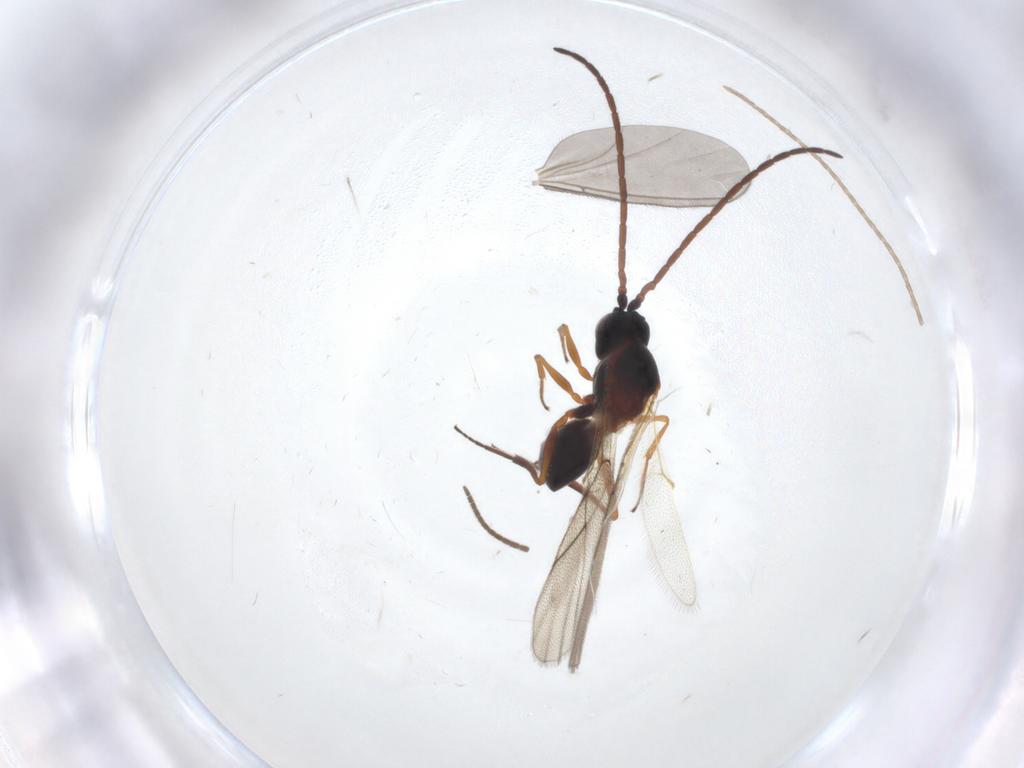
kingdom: Animalia
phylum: Arthropoda
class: Insecta
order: Hymenoptera
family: Figitidae
